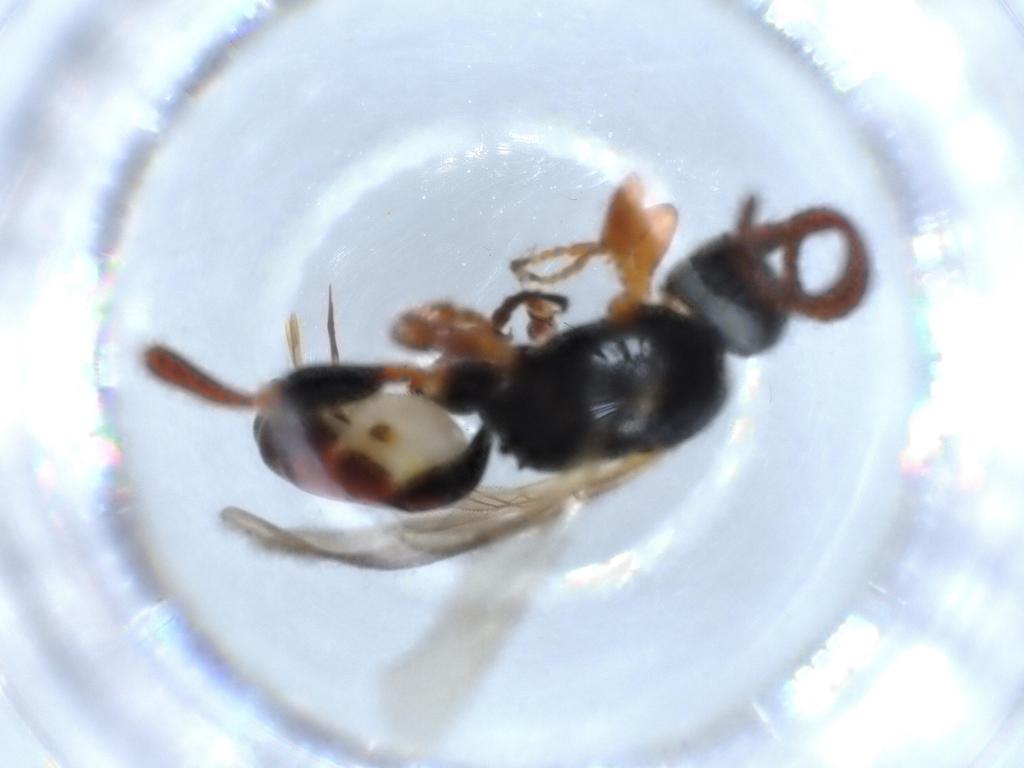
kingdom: Animalia
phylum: Arthropoda
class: Insecta
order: Hymenoptera
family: Ichneumonidae
